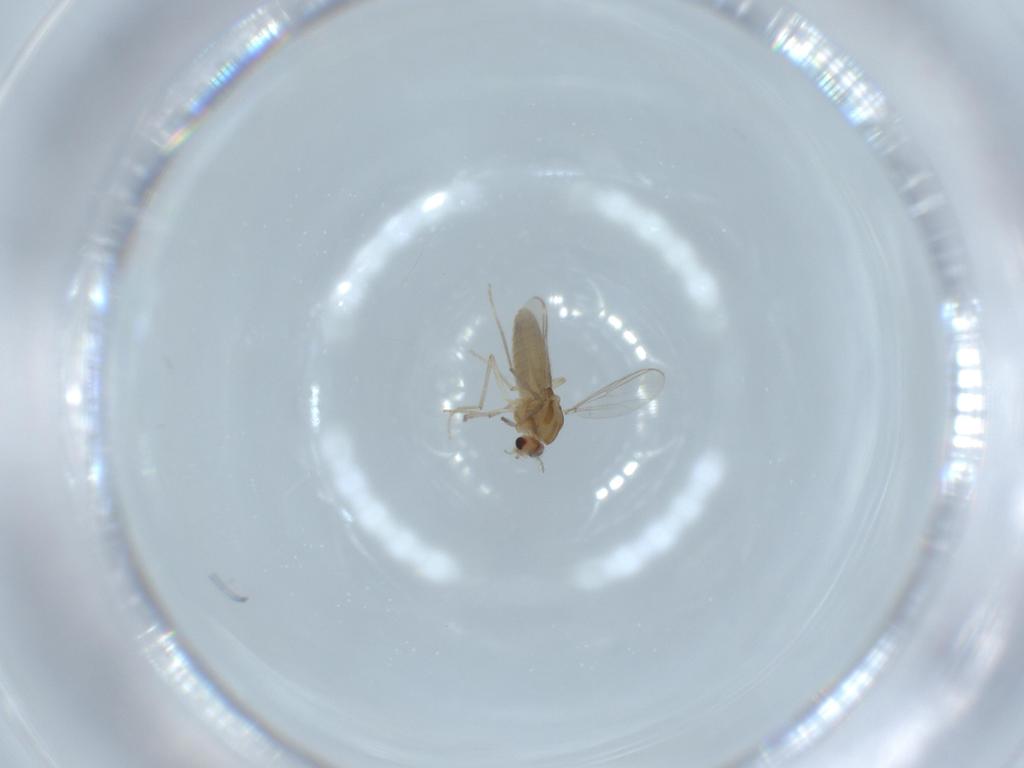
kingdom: Animalia
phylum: Arthropoda
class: Insecta
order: Diptera
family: Chironomidae
